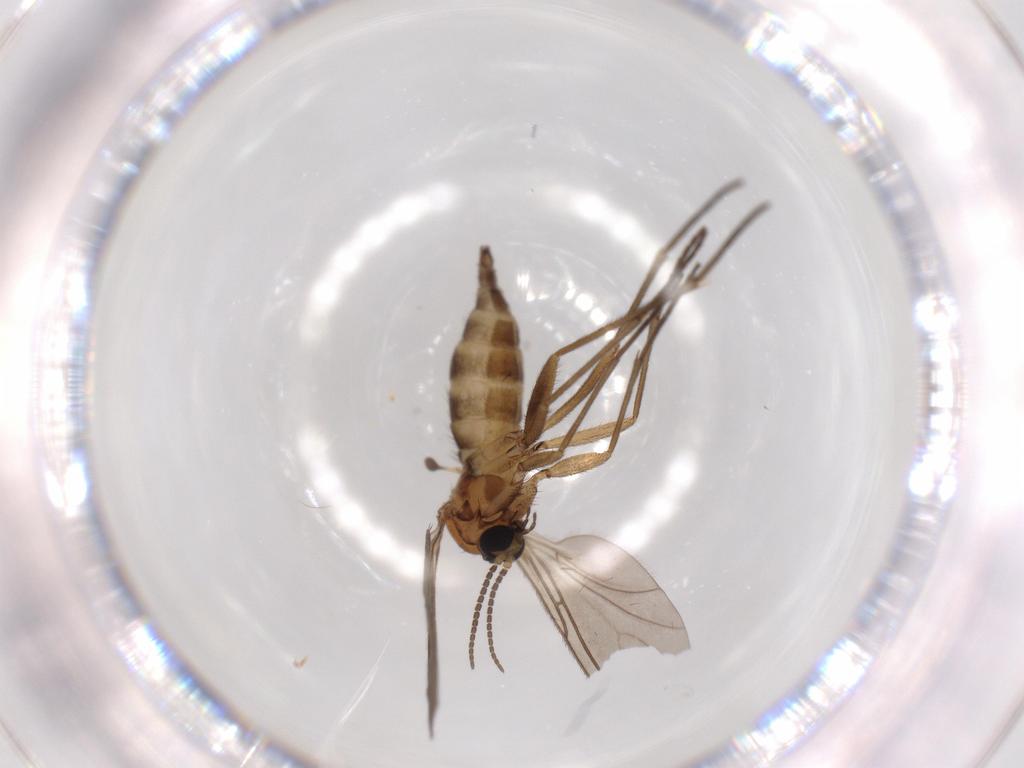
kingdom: Animalia
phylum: Arthropoda
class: Insecta
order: Diptera
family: Sciaridae
